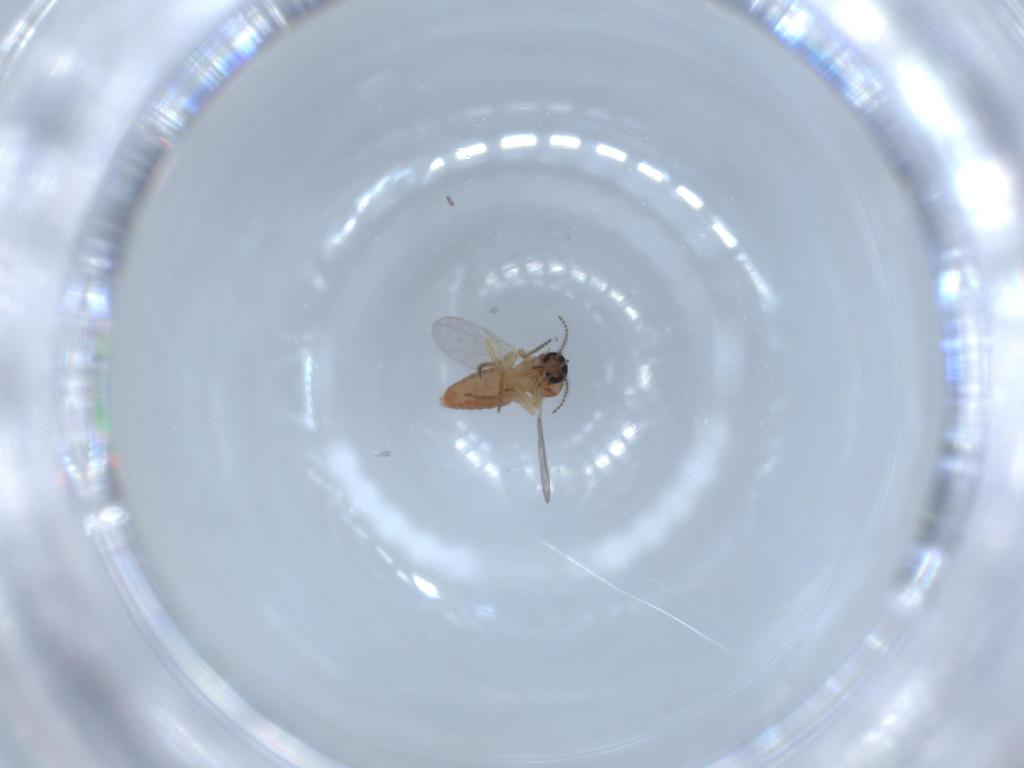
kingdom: Animalia
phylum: Arthropoda
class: Insecta
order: Diptera
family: Ceratopogonidae
